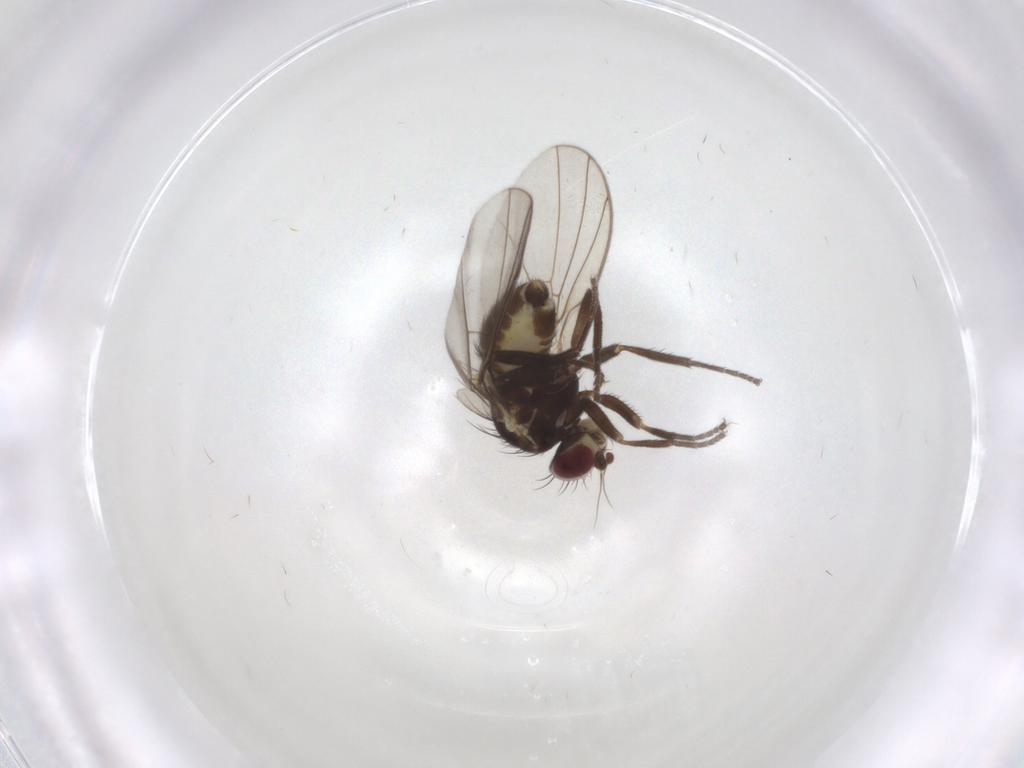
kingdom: Animalia
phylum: Arthropoda
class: Insecta
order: Diptera
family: Agromyzidae
